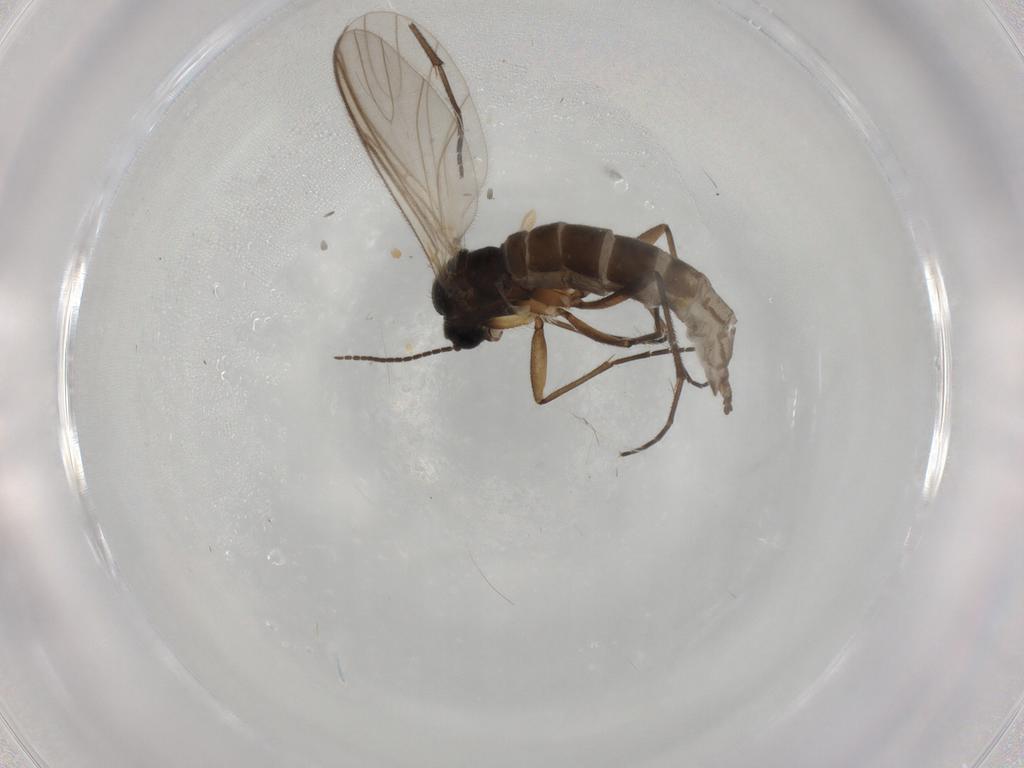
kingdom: Animalia
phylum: Arthropoda
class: Insecta
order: Diptera
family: Sciaridae
